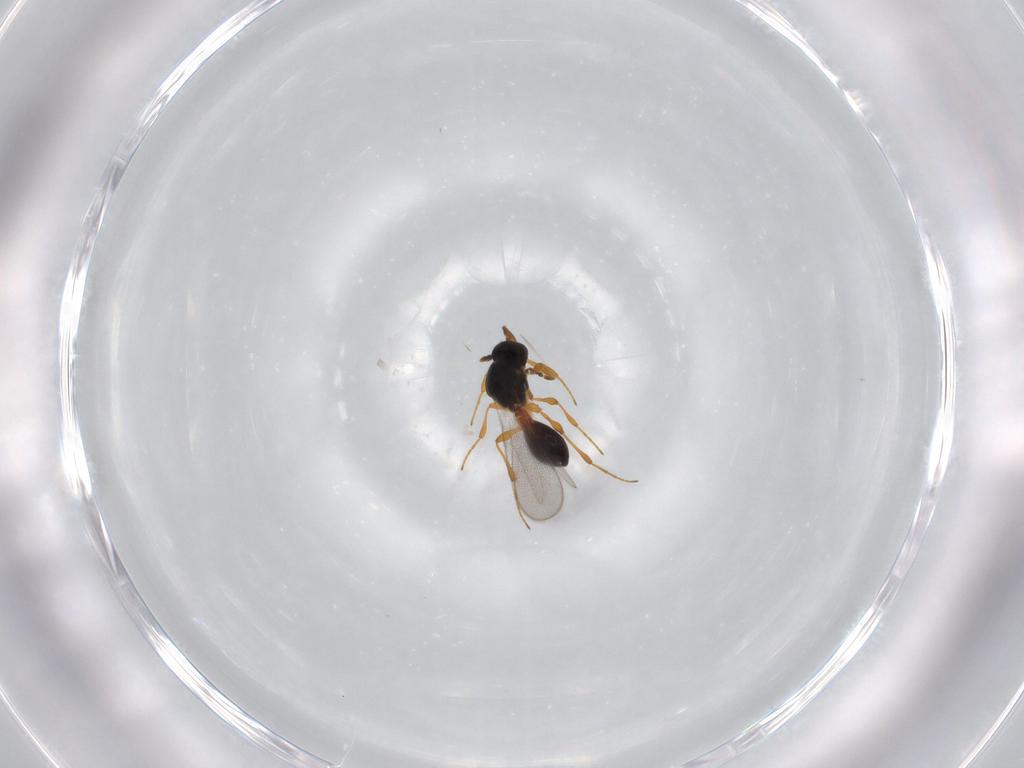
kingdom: Animalia
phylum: Arthropoda
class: Insecta
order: Hymenoptera
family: Platygastridae
